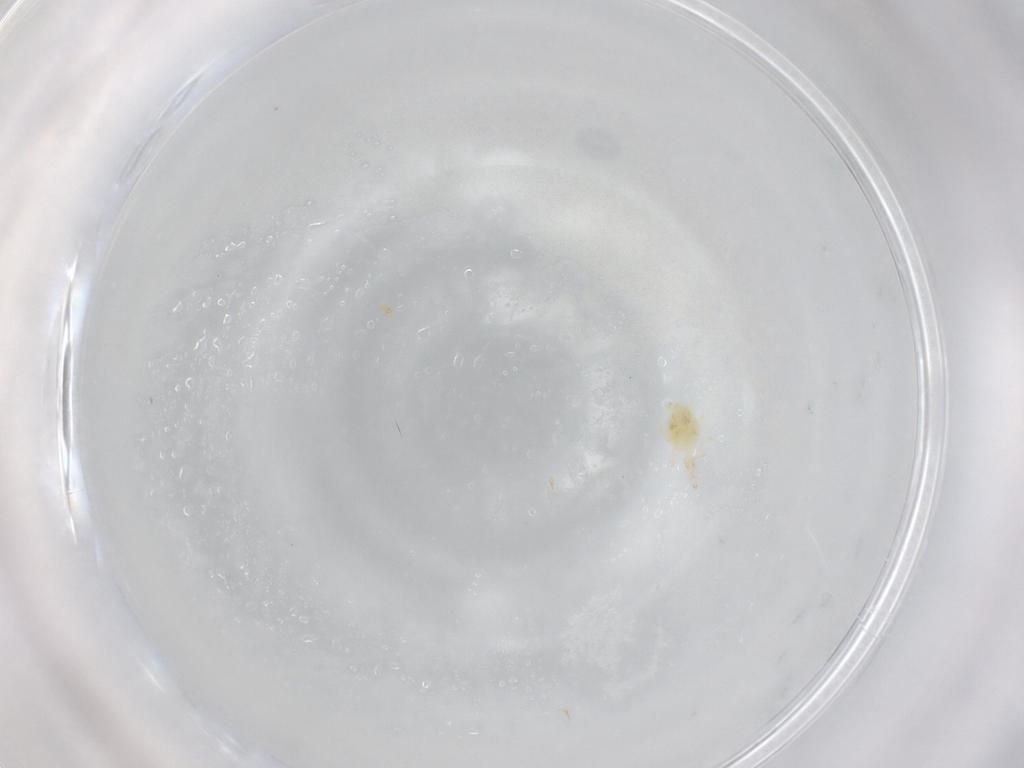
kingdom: Animalia
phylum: Arthropoda
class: Arachnida
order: Trombidiformes
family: Cunaxidae
